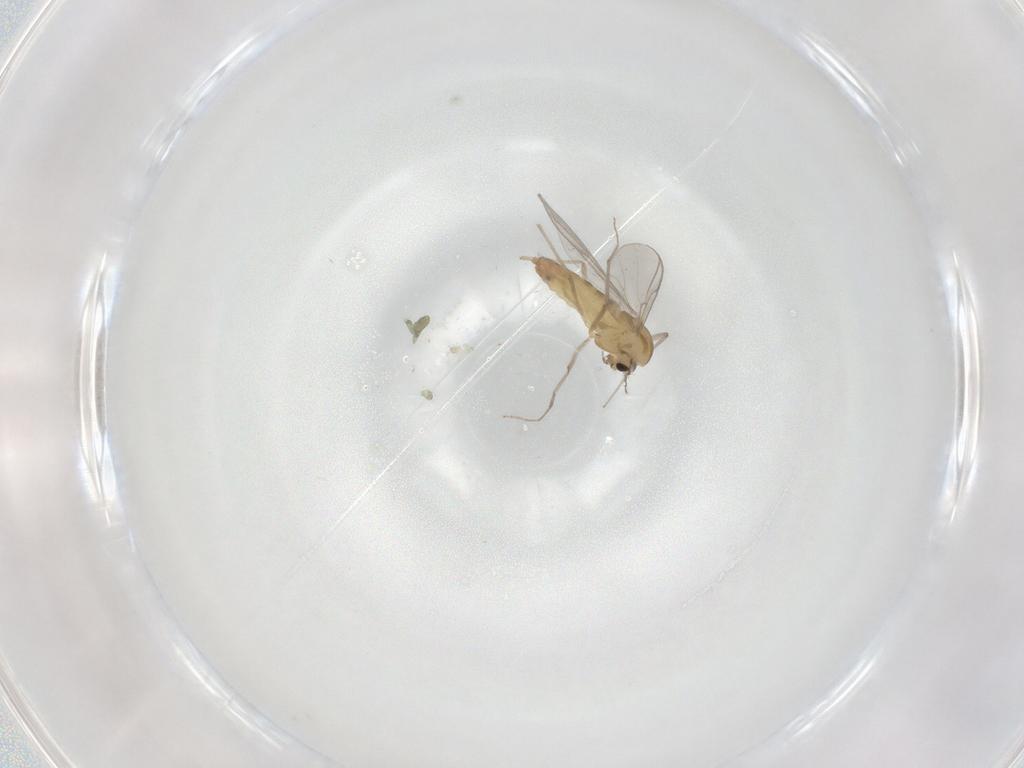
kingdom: Animalia
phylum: Arthropoda
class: Insecta
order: Diptera
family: Chironomidae
